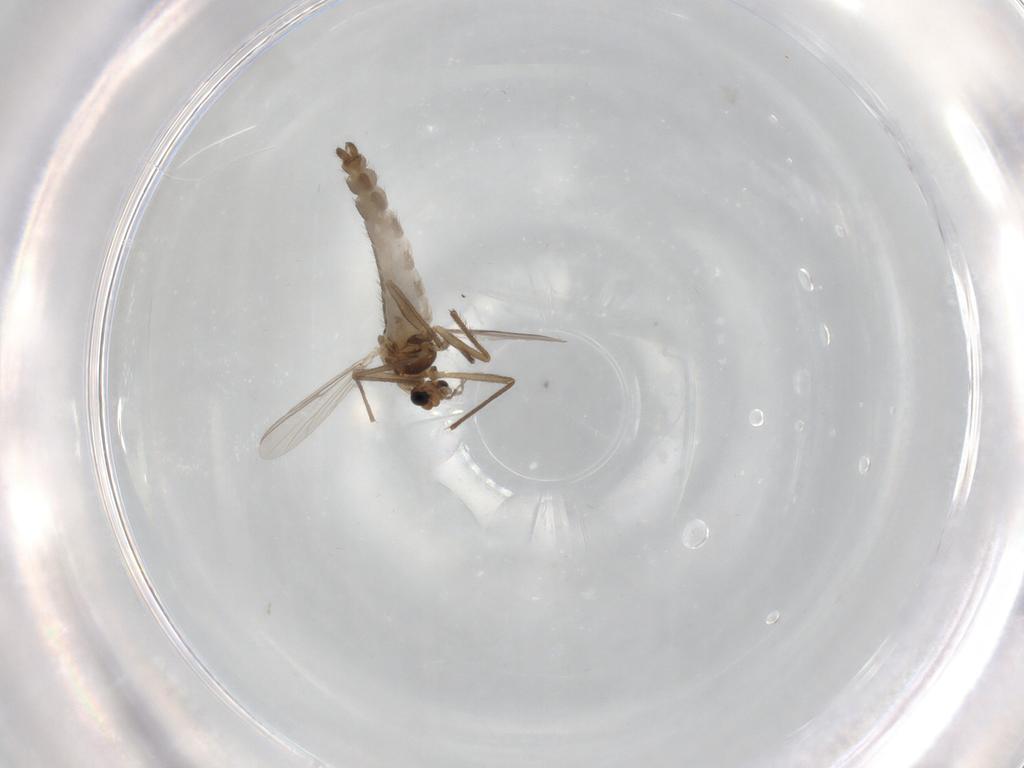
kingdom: Animalia
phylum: Arthropoda
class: Insecta
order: Diptera
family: Chironomidae
